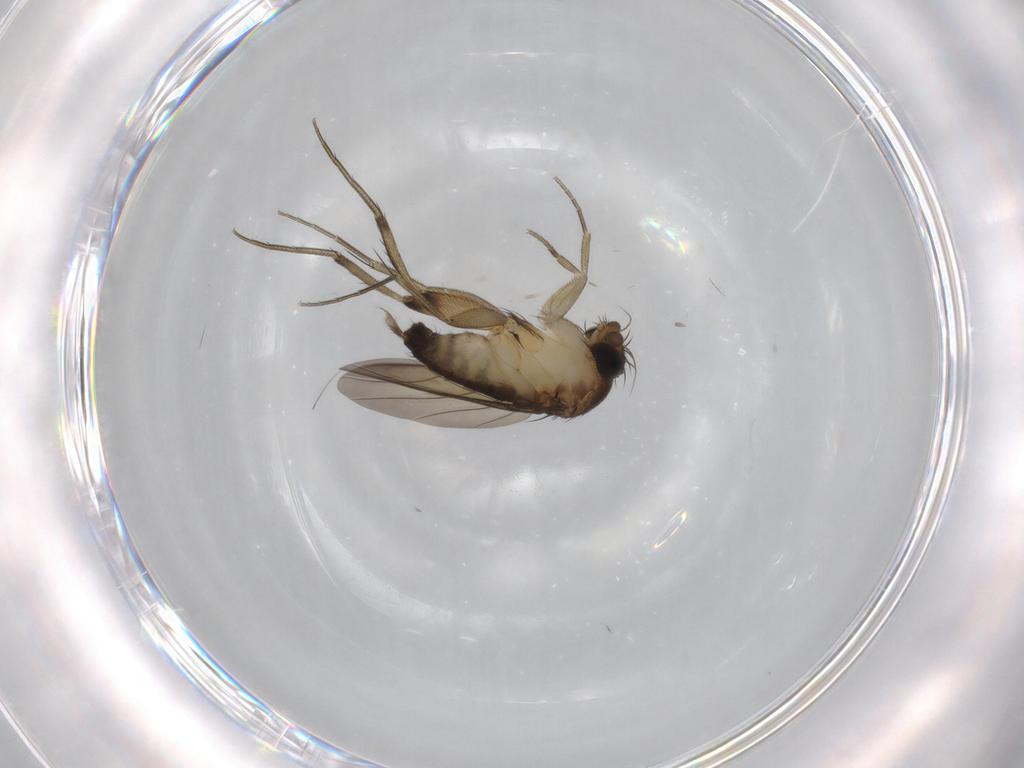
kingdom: Animalia
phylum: Arthropoda
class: Insecta
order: Diptera
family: Phoridae
